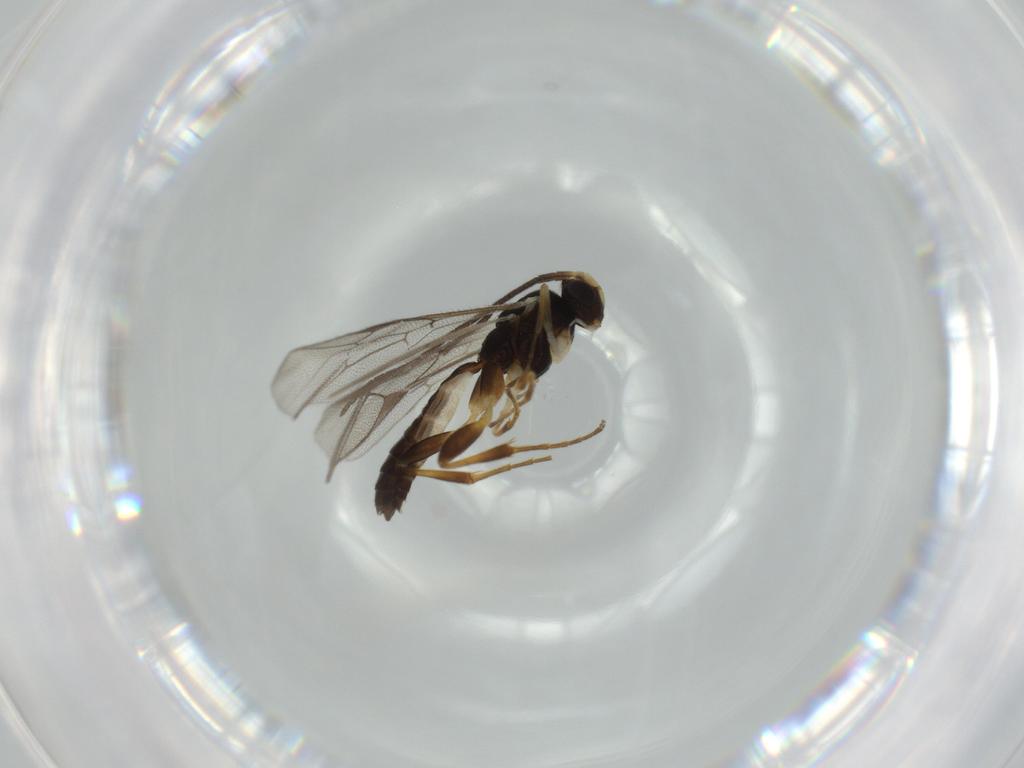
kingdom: Animalia
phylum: Arthropoda
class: Insecta
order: Hymenoptera
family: Ichneumonidae
